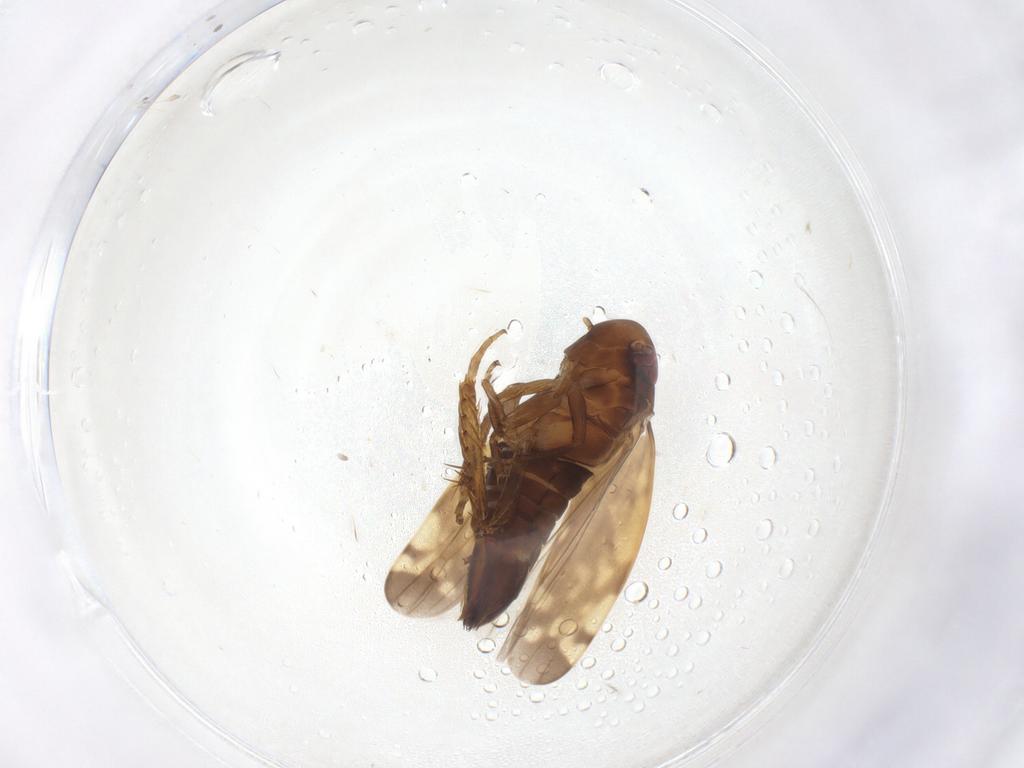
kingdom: Animalia
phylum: Arthropoda
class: Insecta
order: Hemiptera
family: Cicadellidae
